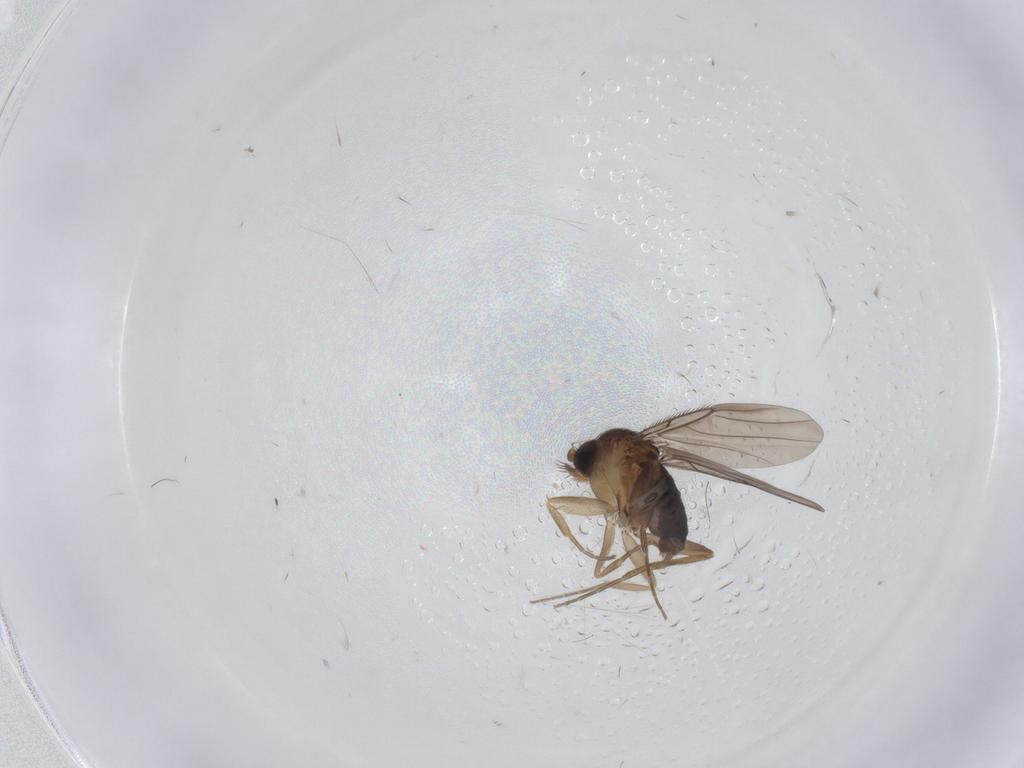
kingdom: Animalia
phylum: Arthropoda
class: Insecta
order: Diptera
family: Phoridae
